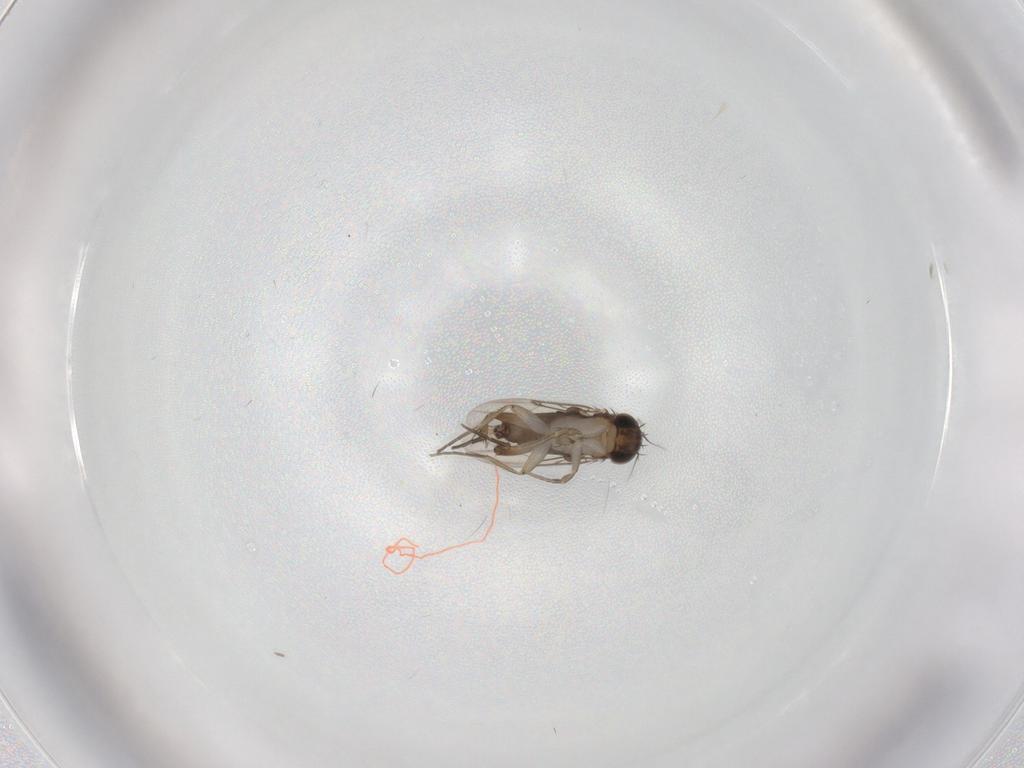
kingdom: Animalia
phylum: Arthropoda
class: Insecta
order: Diptera
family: Phoridae
